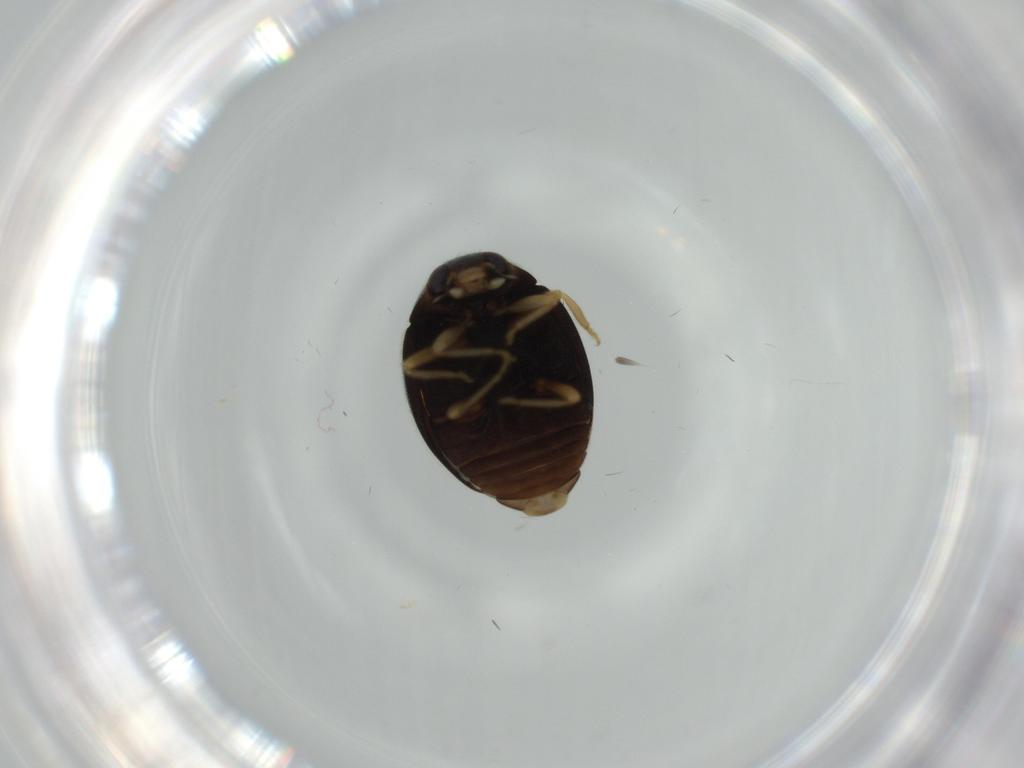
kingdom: Animalia
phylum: Arthropoda
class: Insecta
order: Coleoptera
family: Coccinellidae
